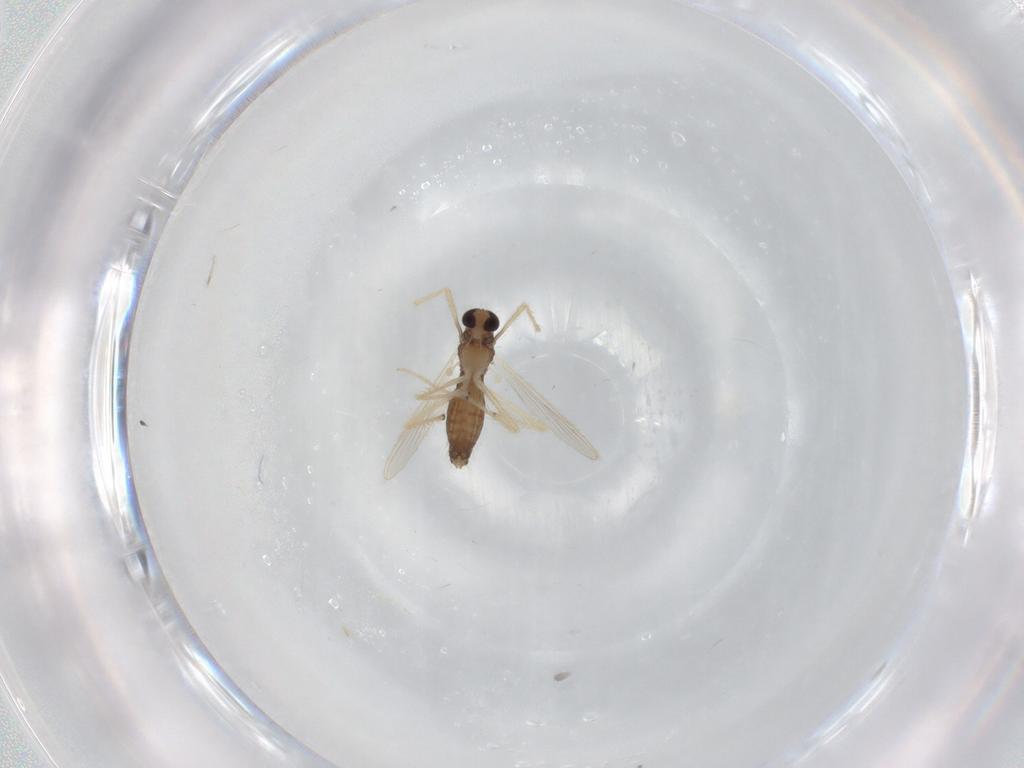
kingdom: Animalia
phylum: Arthropoda
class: Insecta
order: Diptera
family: Chironomidae
